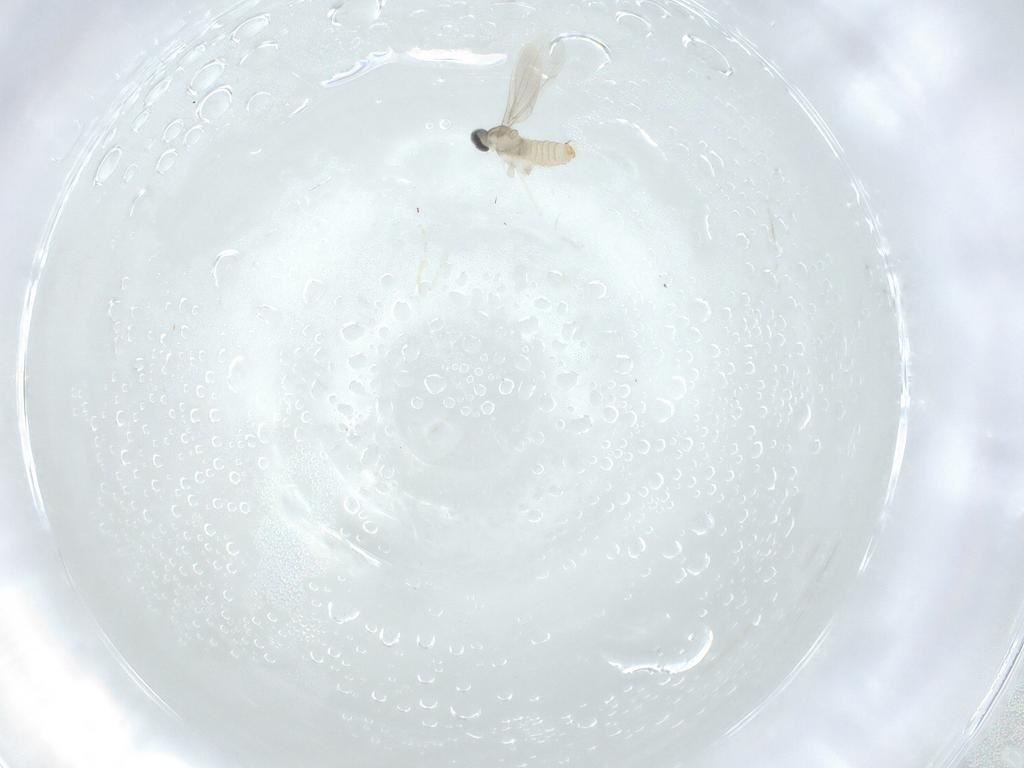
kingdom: Animalia
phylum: Arthropoda
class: Insecta
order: Diptera
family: Cecidomyiidae
